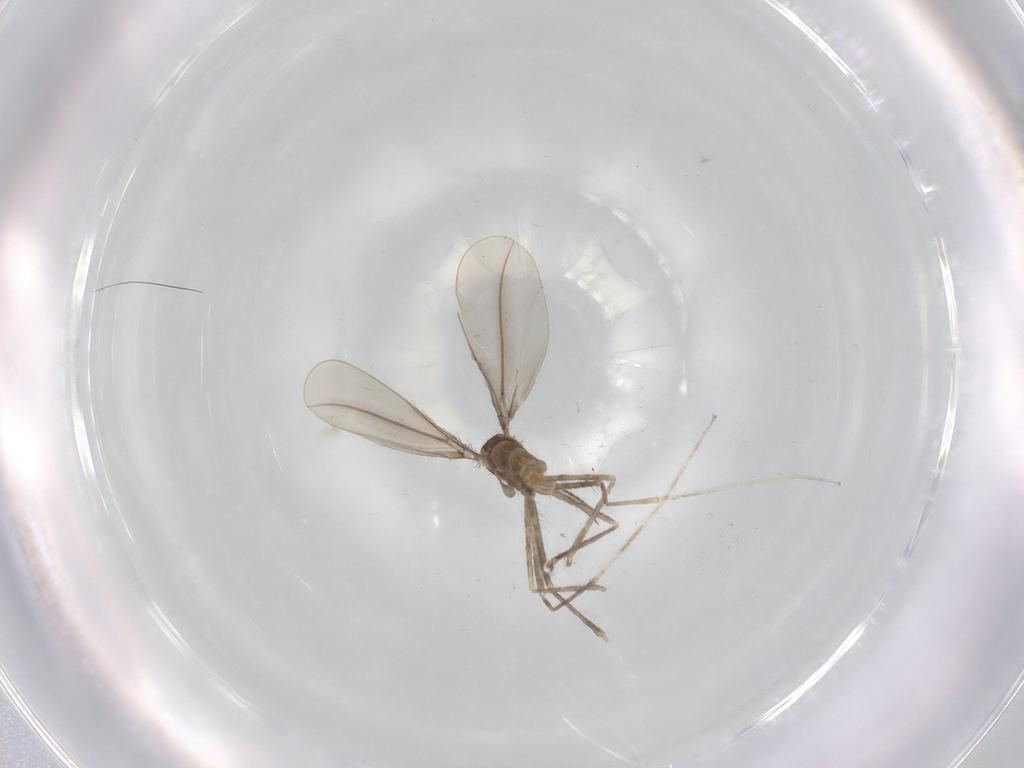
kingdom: Animalia
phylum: Arthropoda
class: Insecta
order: Diptera
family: Cecidomyiidae
